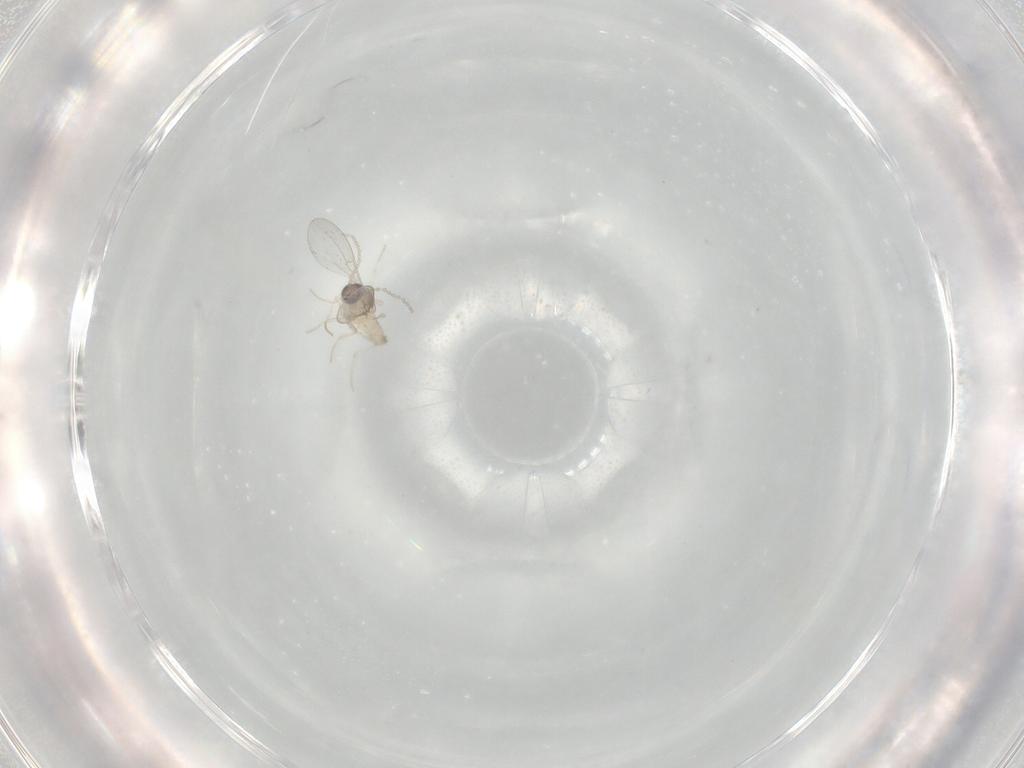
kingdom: Animalia
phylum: Arthropoda
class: Insecta
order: Diptera
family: Cecidomyiidae
